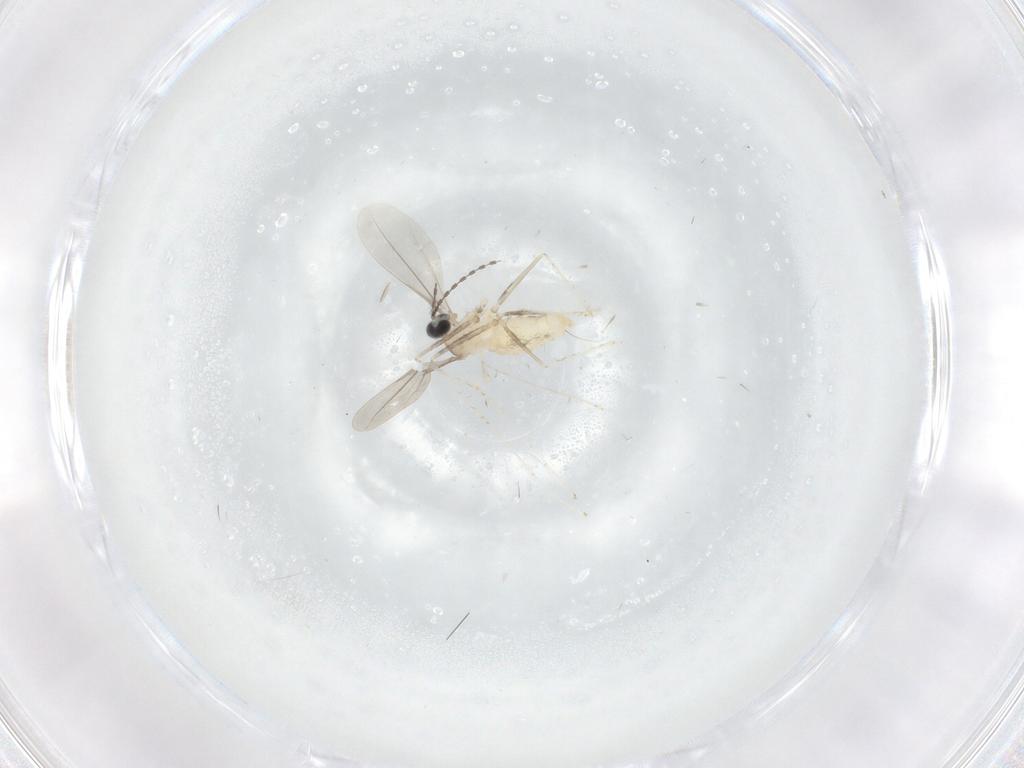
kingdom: Animalia
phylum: Arthropoda
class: Insecta
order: Diptera
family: Cecidomyiidae
